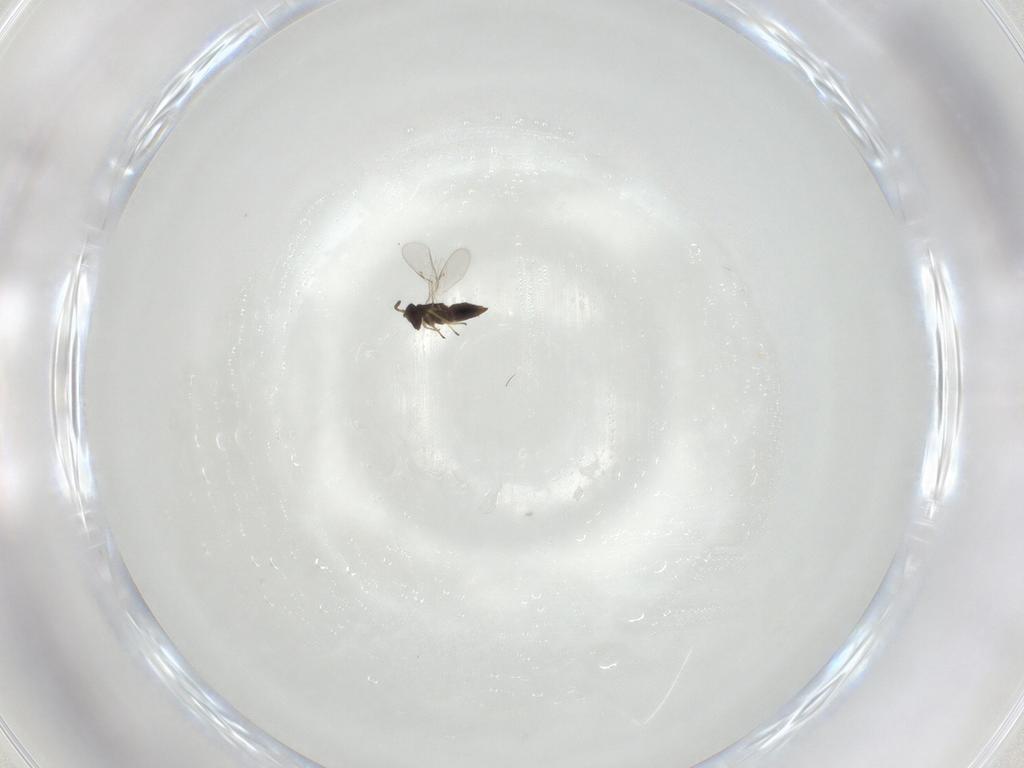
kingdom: Animalia
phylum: Arthropoda
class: Insecta
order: Hymenoptera
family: Encyrtidae
